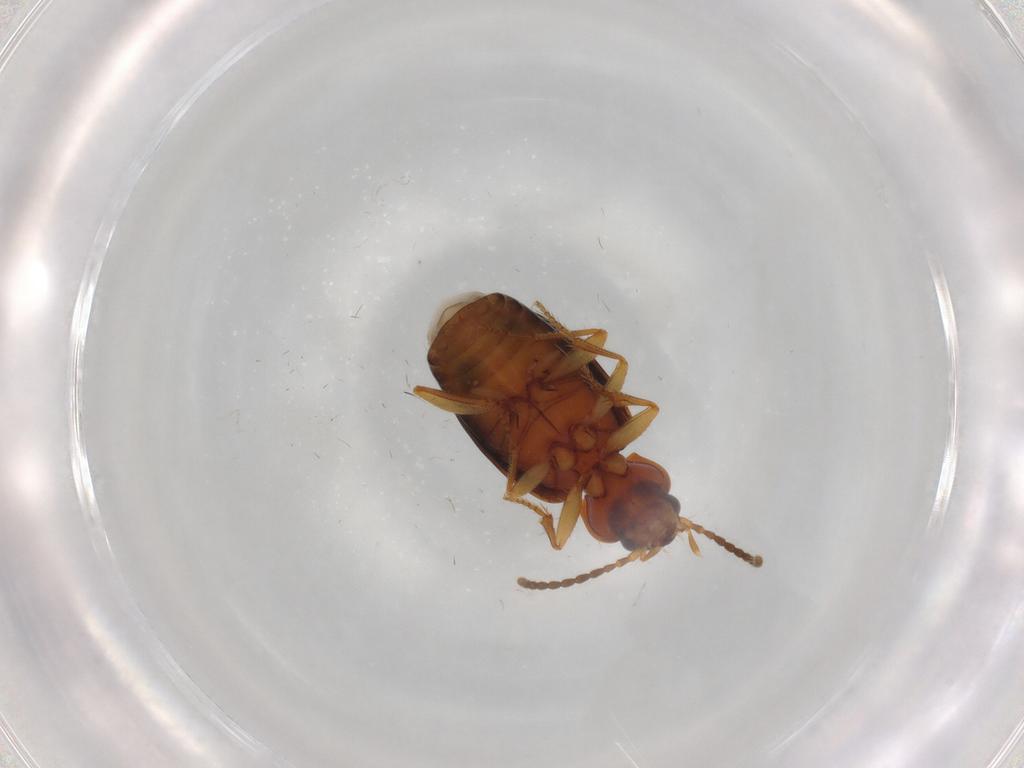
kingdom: Animalia
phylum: Arthropoda
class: Insecta
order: Coleoptera
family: Carabidae
